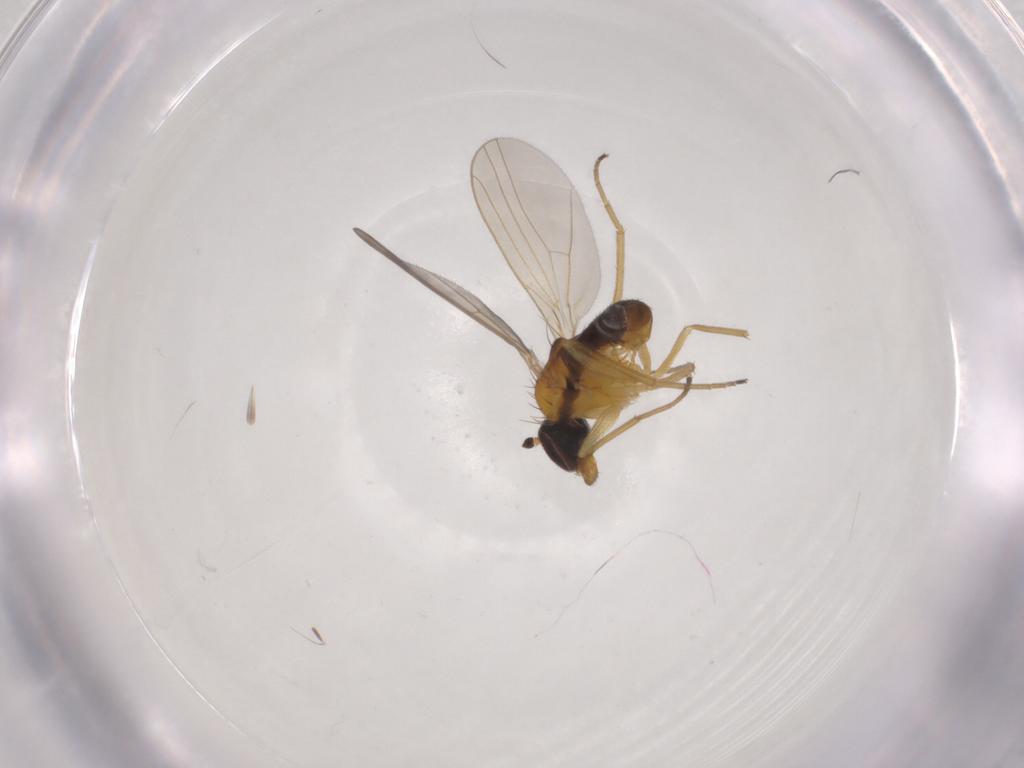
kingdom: Animalia
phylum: Arthropoda
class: Insecta
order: Diptera
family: Dolichopodidae
